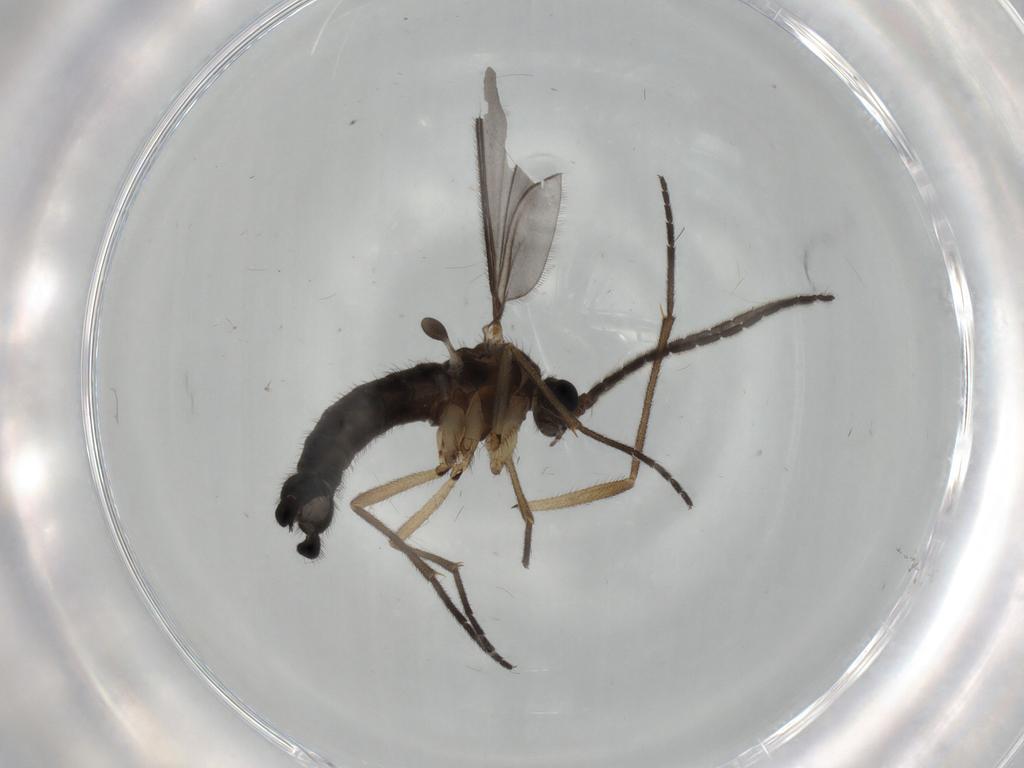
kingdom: Animalia
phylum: Arthropoda
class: Insecta
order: Diptera
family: Sciaridae
